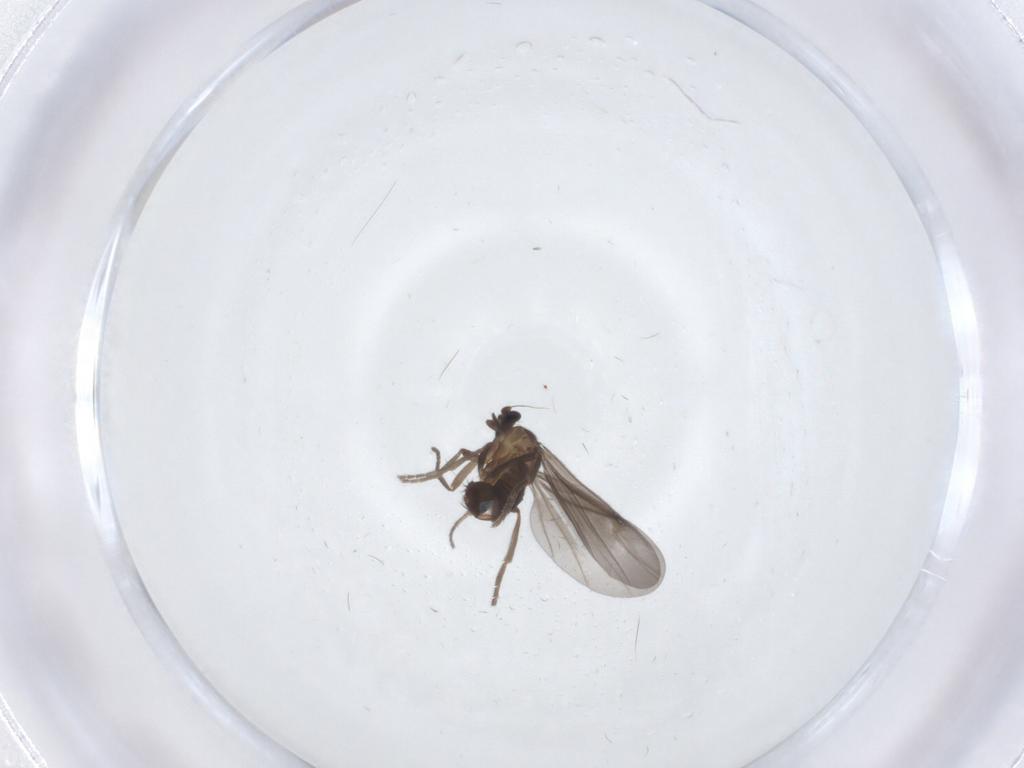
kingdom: Animalia
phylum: Arthropoda
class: Insecta
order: Diptera
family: Phoridae
